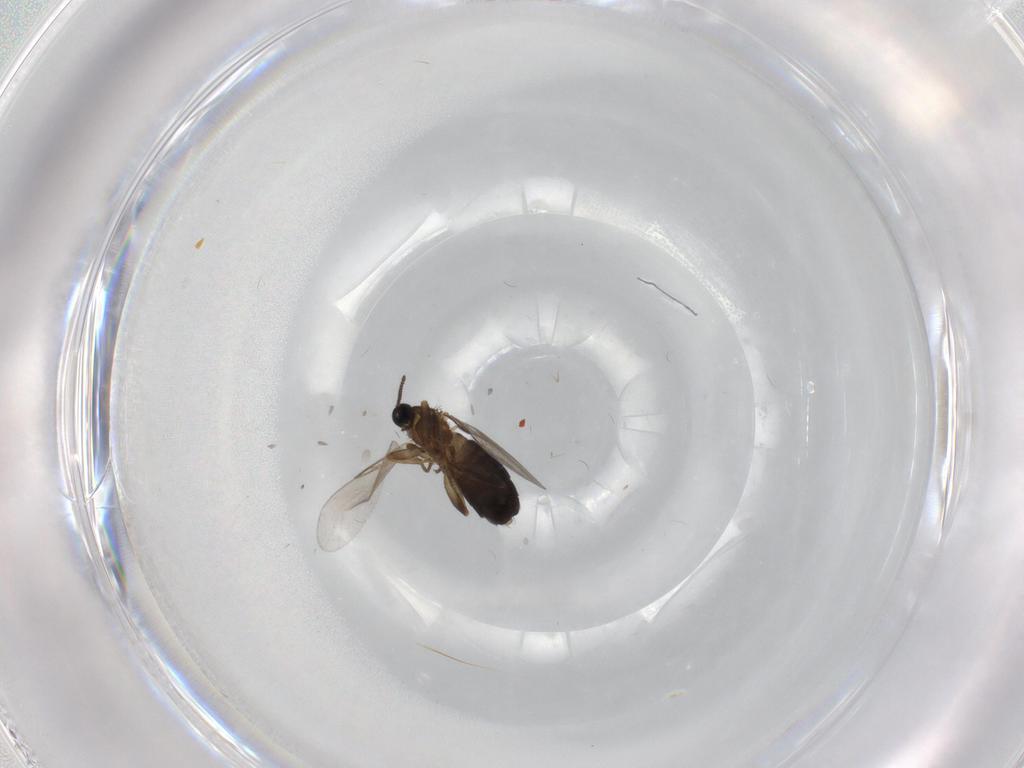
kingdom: Animalia
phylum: Arthropoda
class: Insecta
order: Diptera
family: Scatopsidae
